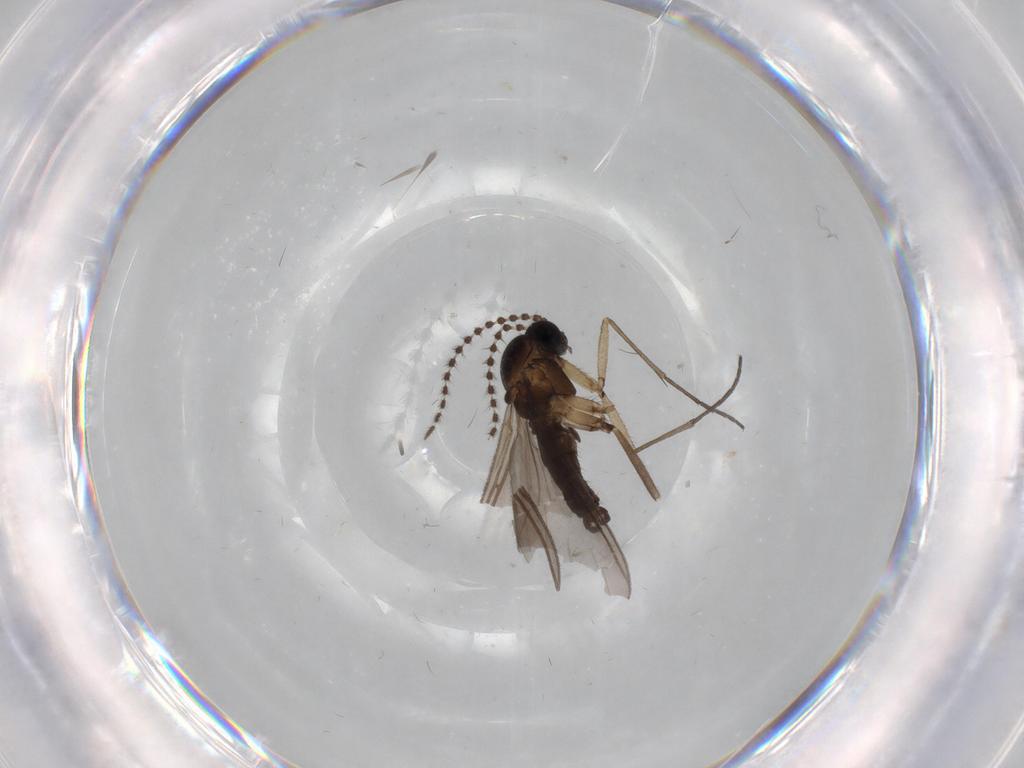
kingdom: Animalia
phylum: Arthropoda
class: Insecta
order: Diptera
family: Sciaridae
